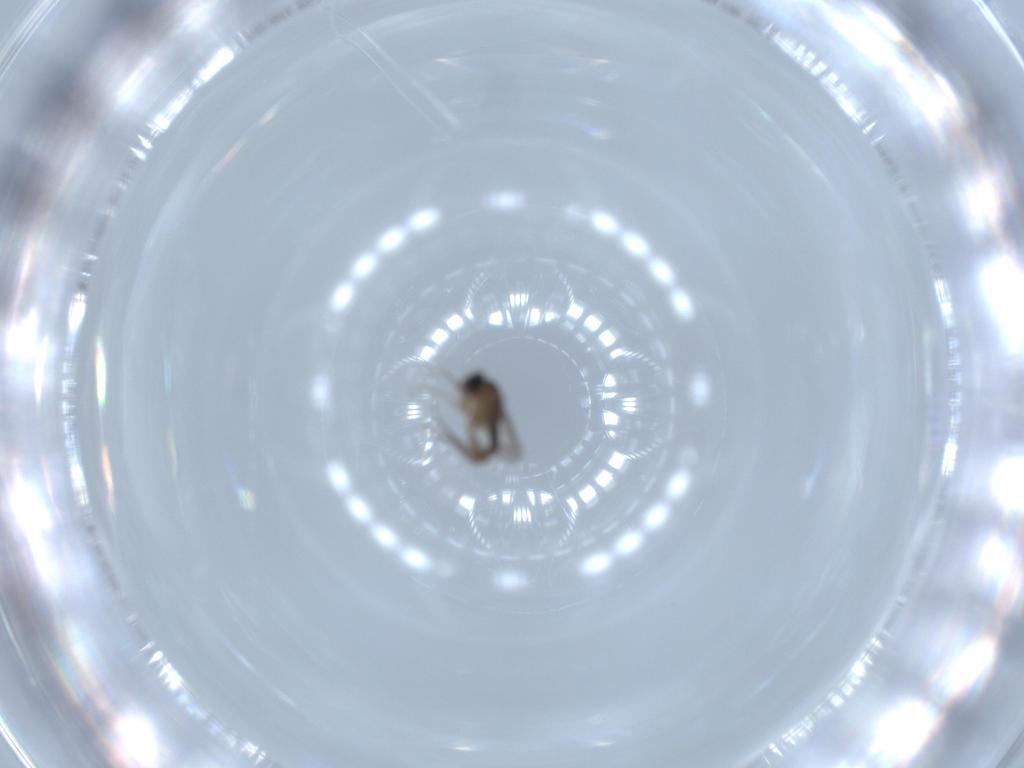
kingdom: Animalia
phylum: Arthropoda
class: Insecta
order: Diptera
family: Phoridae
